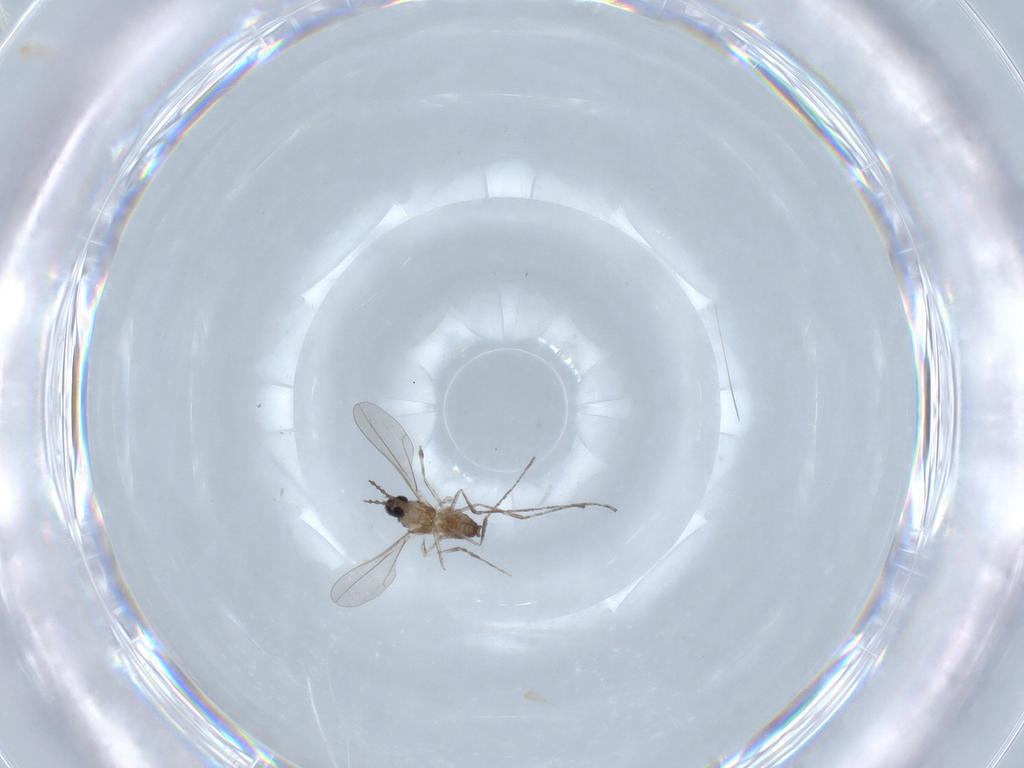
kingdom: Animalia
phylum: Arthropoda
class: Insecta
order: Diptera
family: Cecidomyiidae
